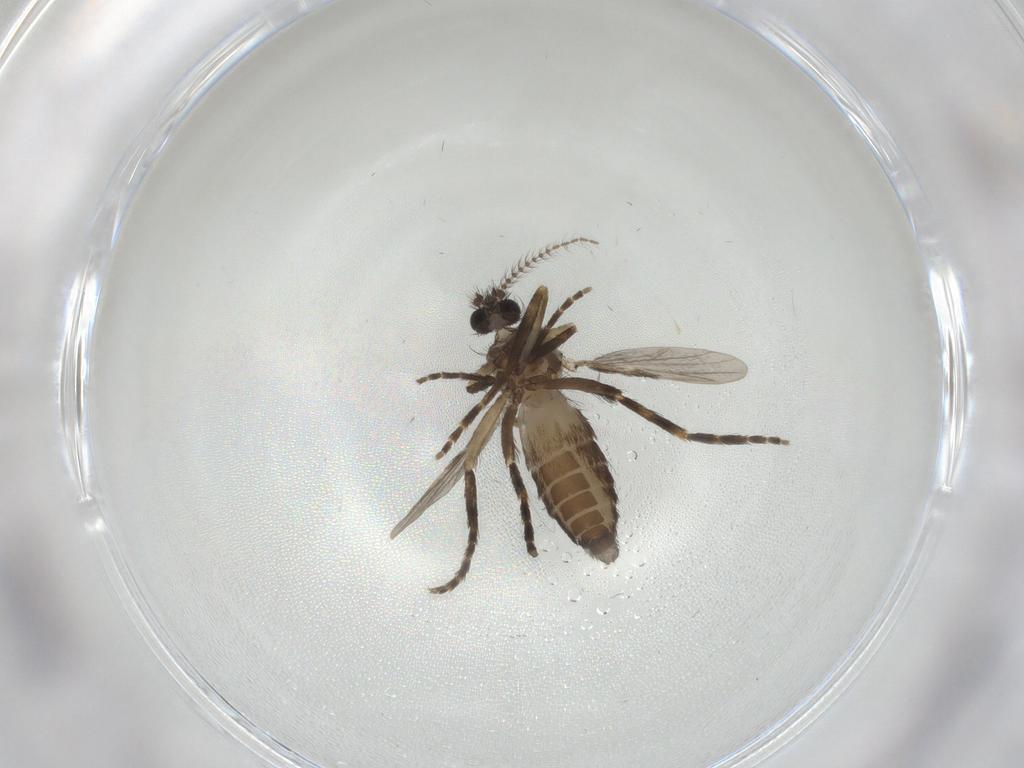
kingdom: Animalia
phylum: Arthropoda
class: Insecta
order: Diptera
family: Ceratopogonidae
